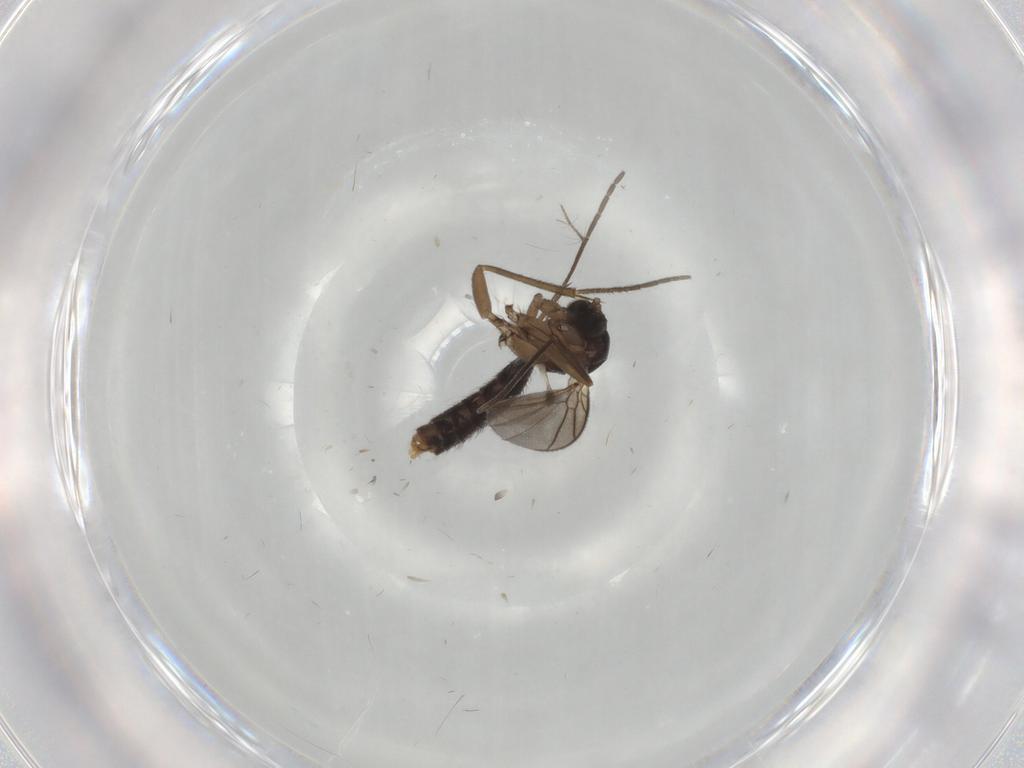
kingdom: Animalia
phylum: Arthropoda
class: Insecta
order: Diptera
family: Mycetophilidae
